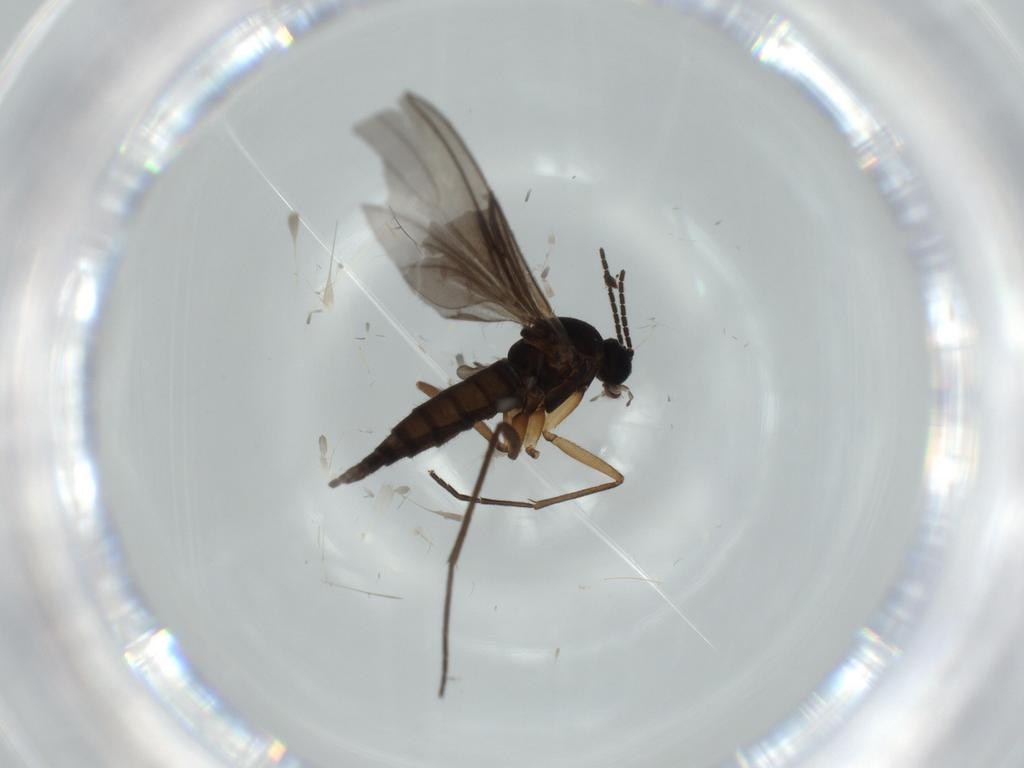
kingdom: Animalia
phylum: Arthropoda
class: Insecta
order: Diptera
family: Sciaridae
